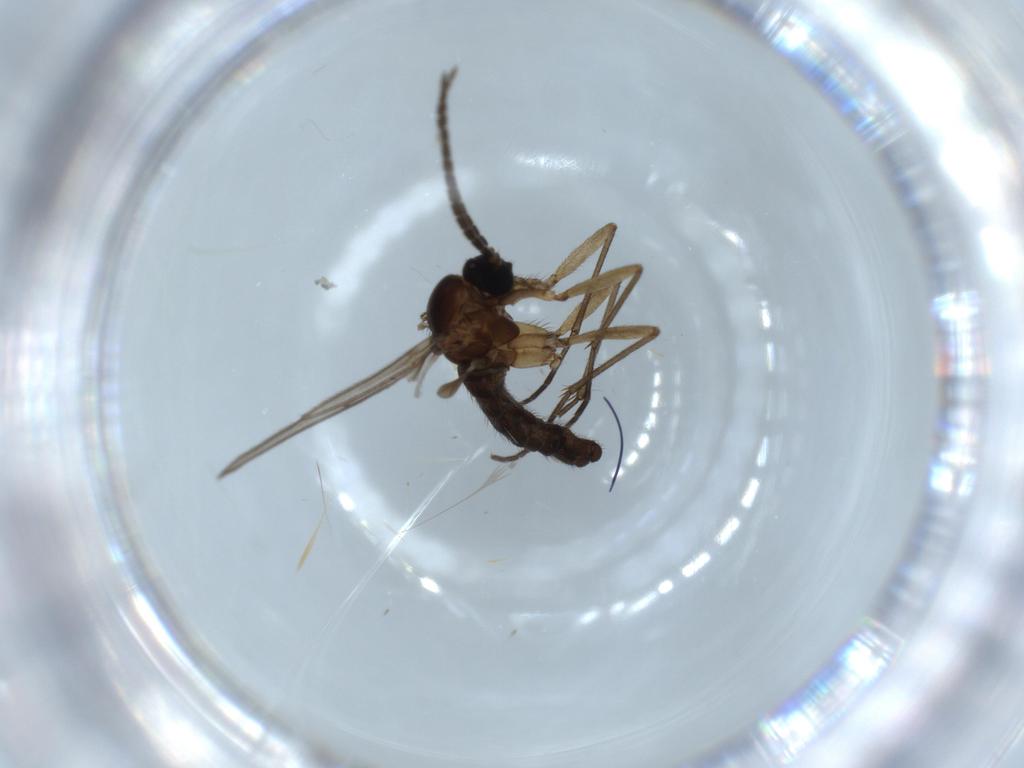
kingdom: Animalia
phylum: Arthropoda
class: Insecta
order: Diptera
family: Sciaridae
